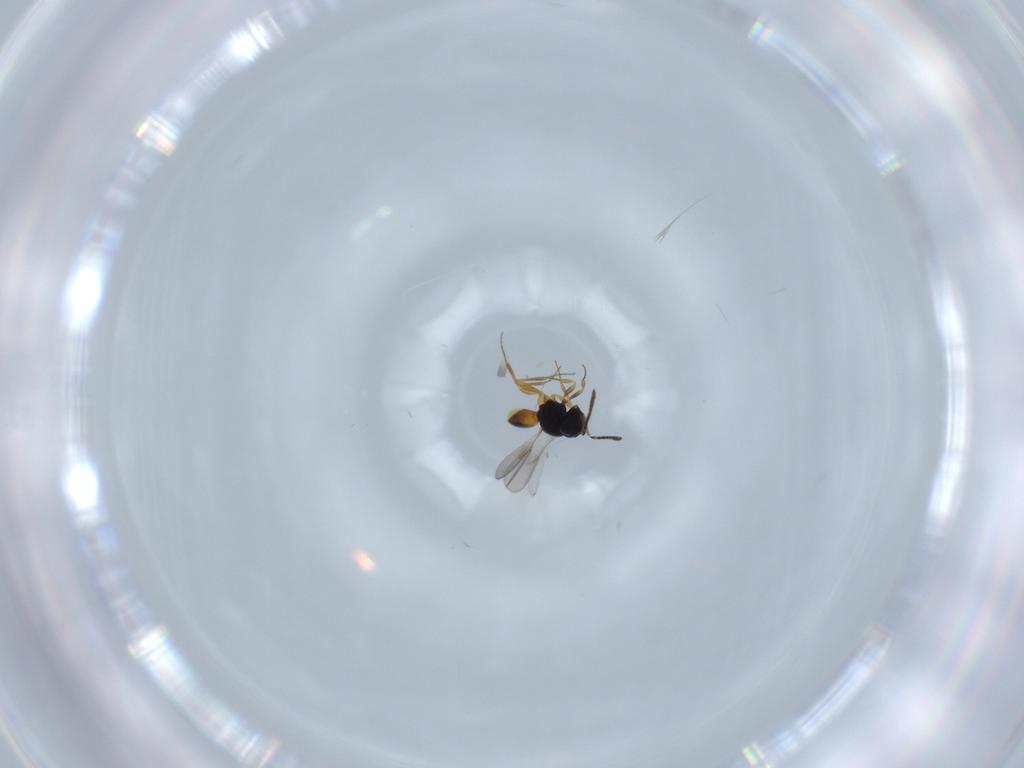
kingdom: Animalia
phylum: Arthropoda
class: Insecta
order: Hymenoptera
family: Scelionidae
